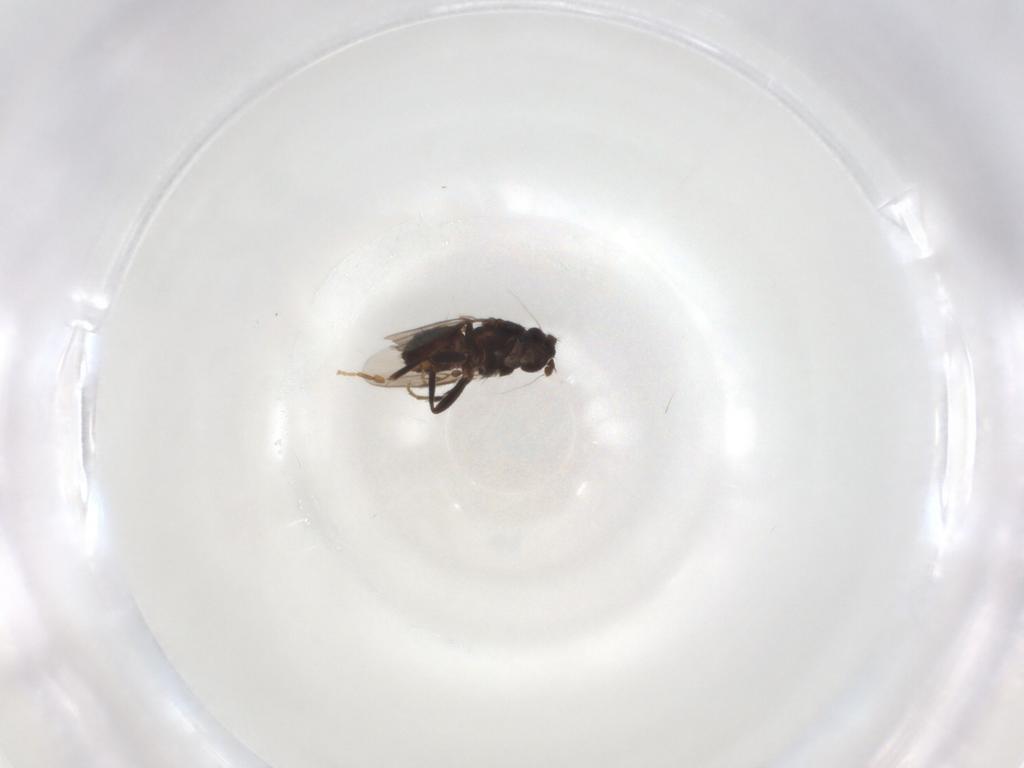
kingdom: Animalia
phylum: Arthropoda
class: Insecta
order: Diptera
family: Sphaeroceridae
